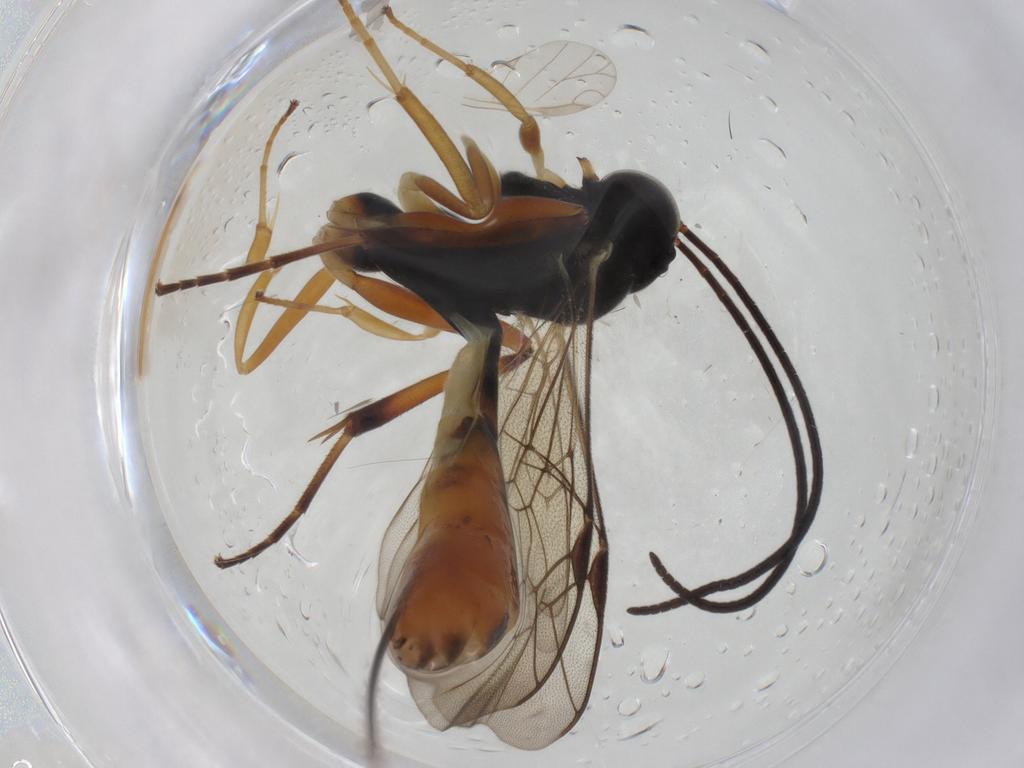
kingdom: Animalia
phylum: Arthropoda
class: Insecta
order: Hymenoptera
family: Ichneumonidae
